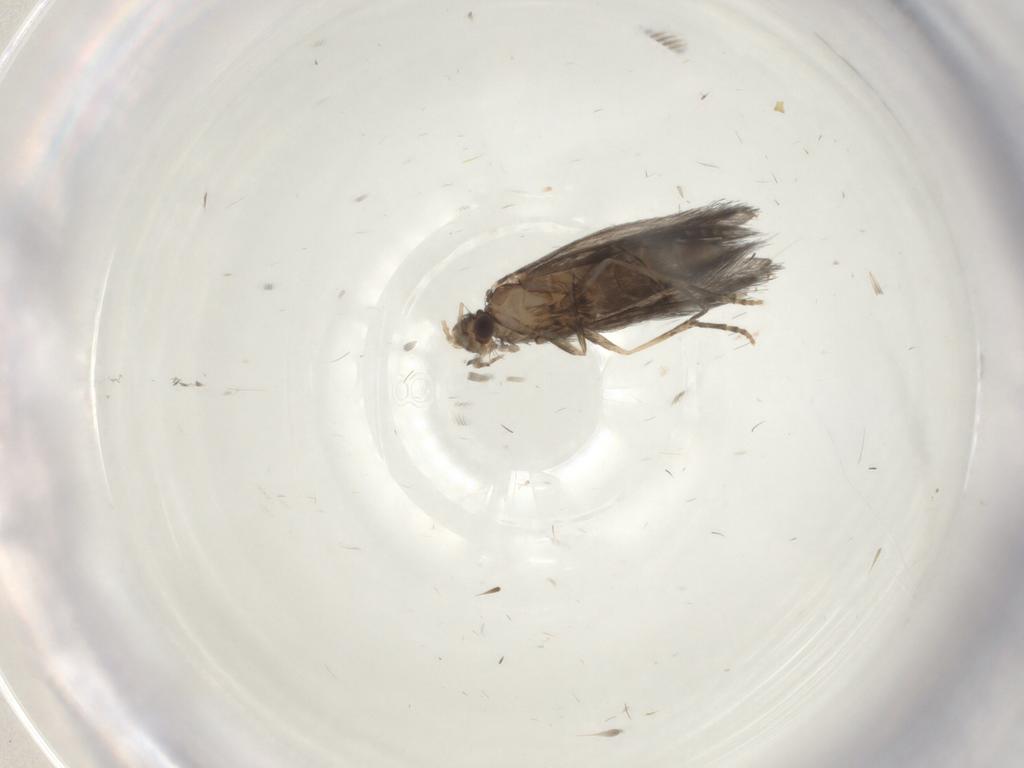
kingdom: Animalia
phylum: Arthropoda
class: Insecta
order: Trichoptera
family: Hydroptilidae
